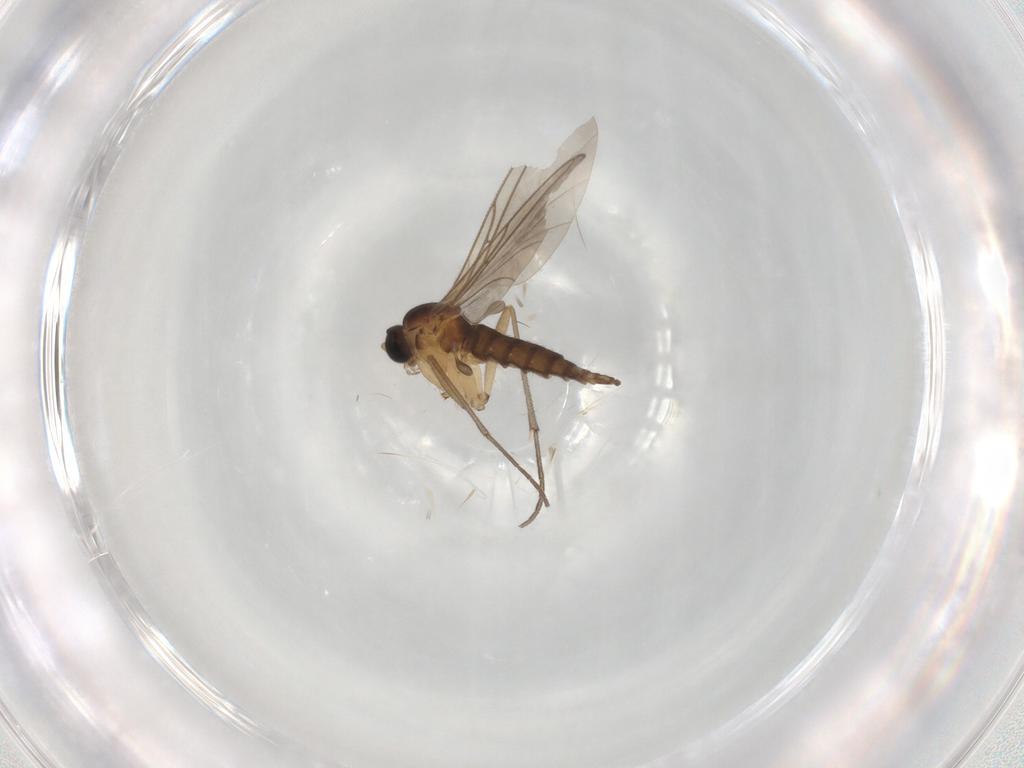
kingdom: Animalia
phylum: Arthropoda
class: Insecta
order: Diptera
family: Sciaridae
